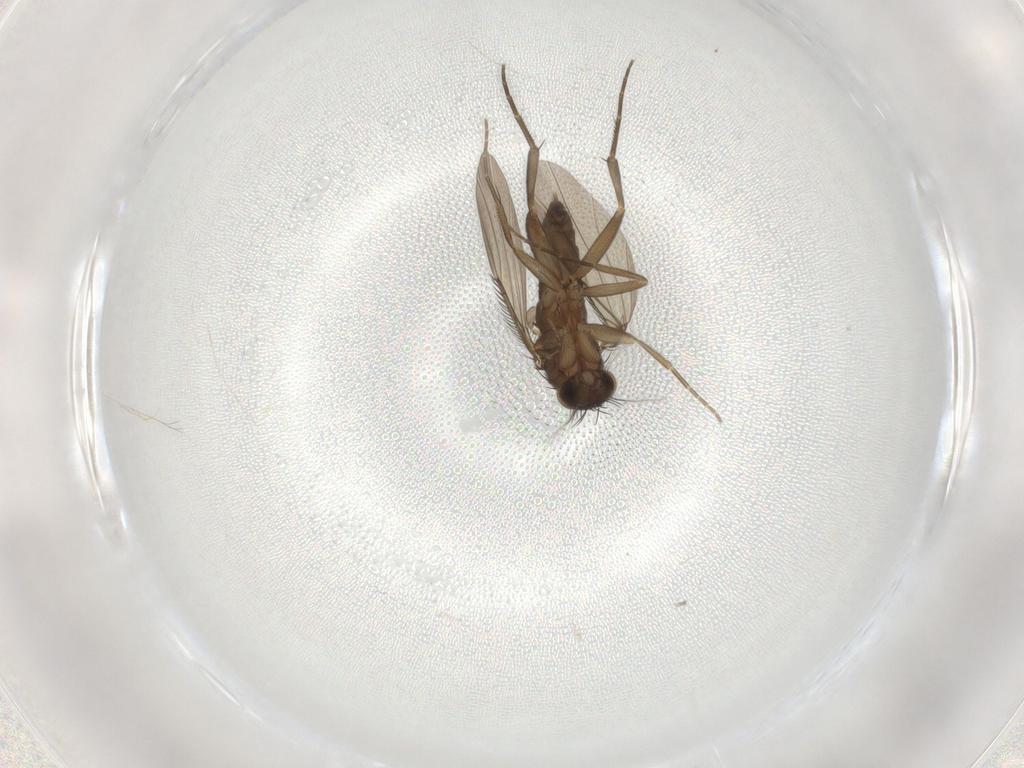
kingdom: Animalia
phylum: Arthropoda
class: Insecta
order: Diptera
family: Phoridae
